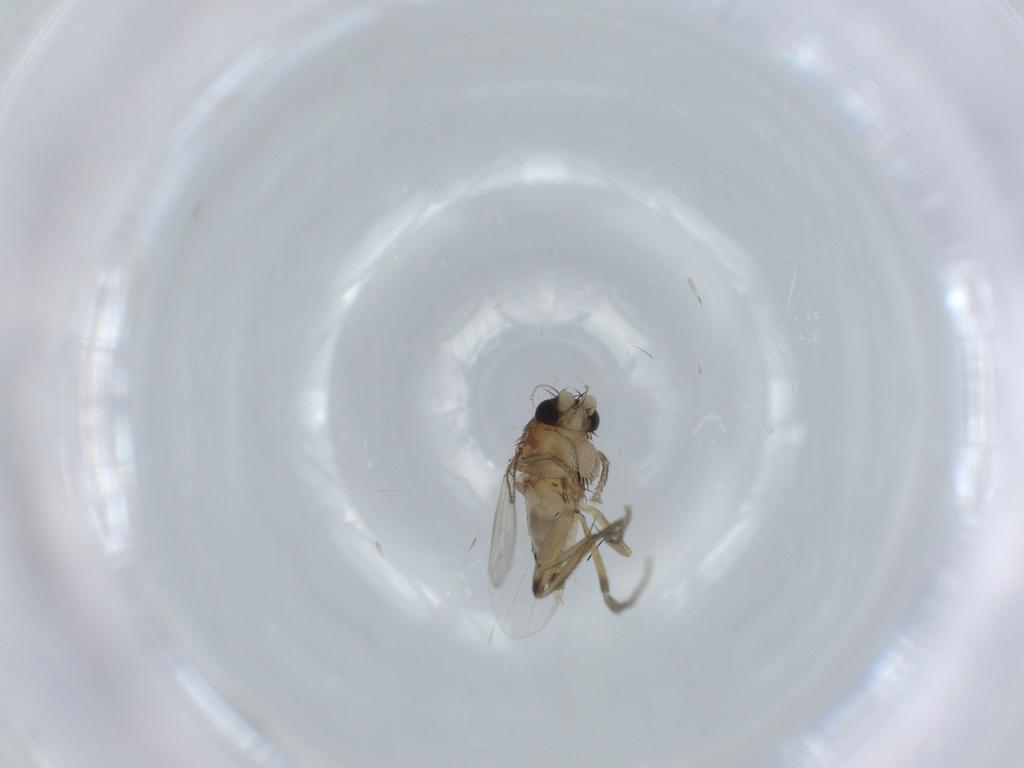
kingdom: Animalia
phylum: Arthropoda
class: Insecta
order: Diptera
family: Phoridae
